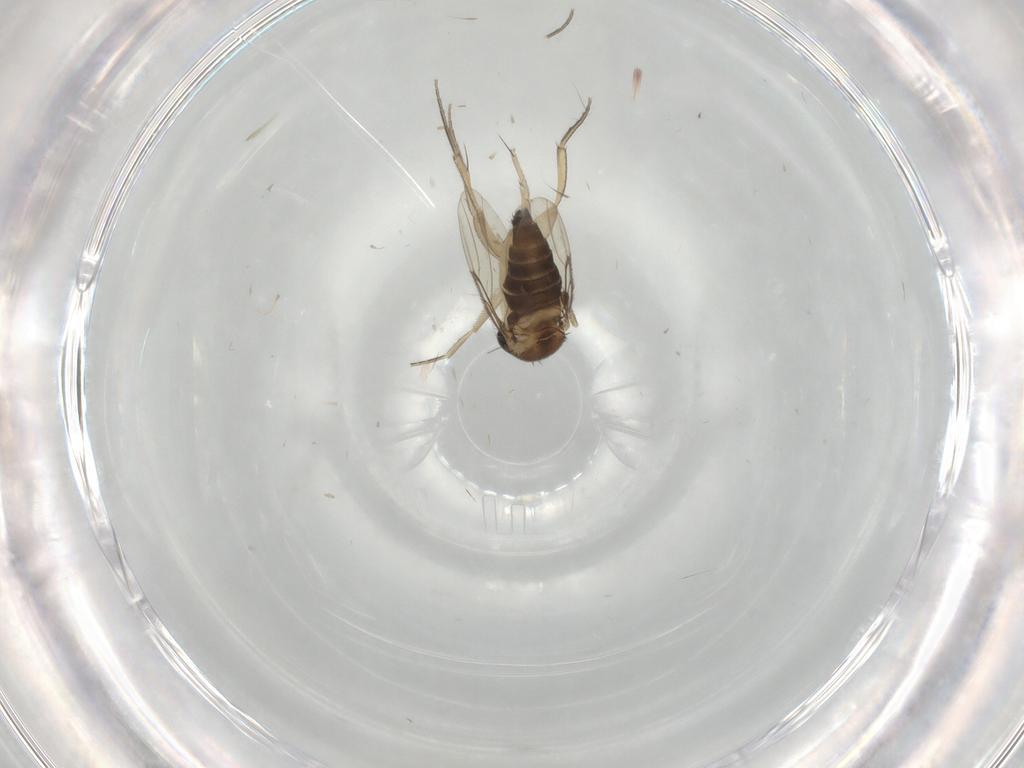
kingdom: Animalia
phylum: Arthropoda
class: Insecta
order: Diptera
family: Phoridae
